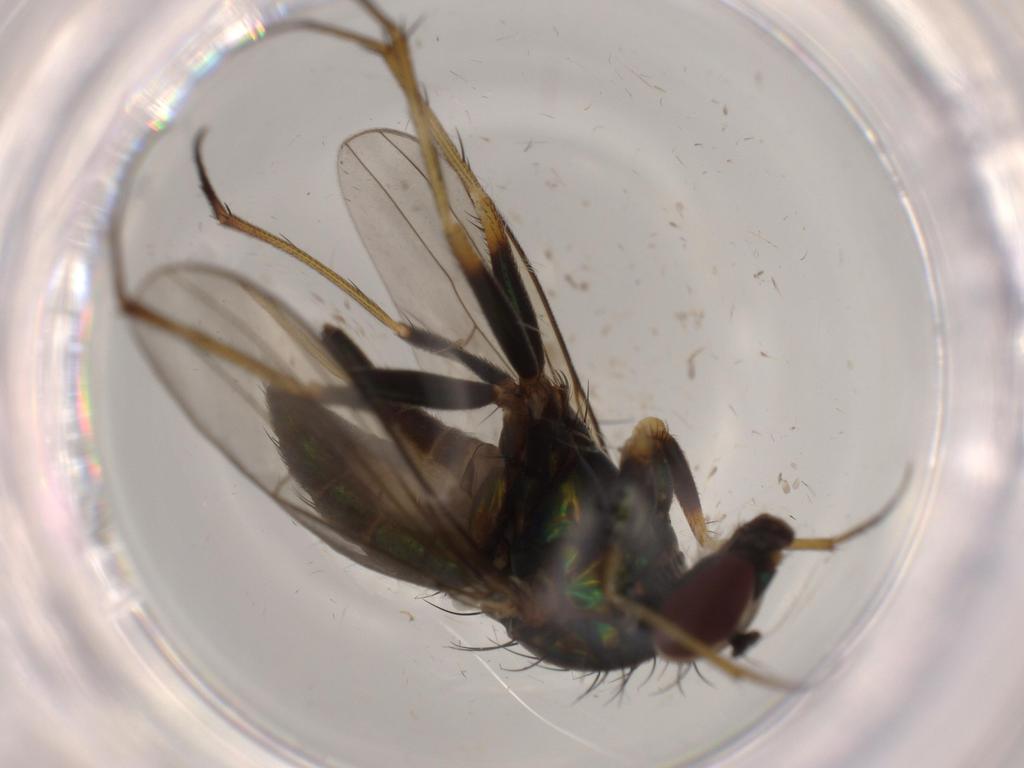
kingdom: Animalia
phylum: Arthropoda
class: Insecta
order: Diptera
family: Dolichopodidae
